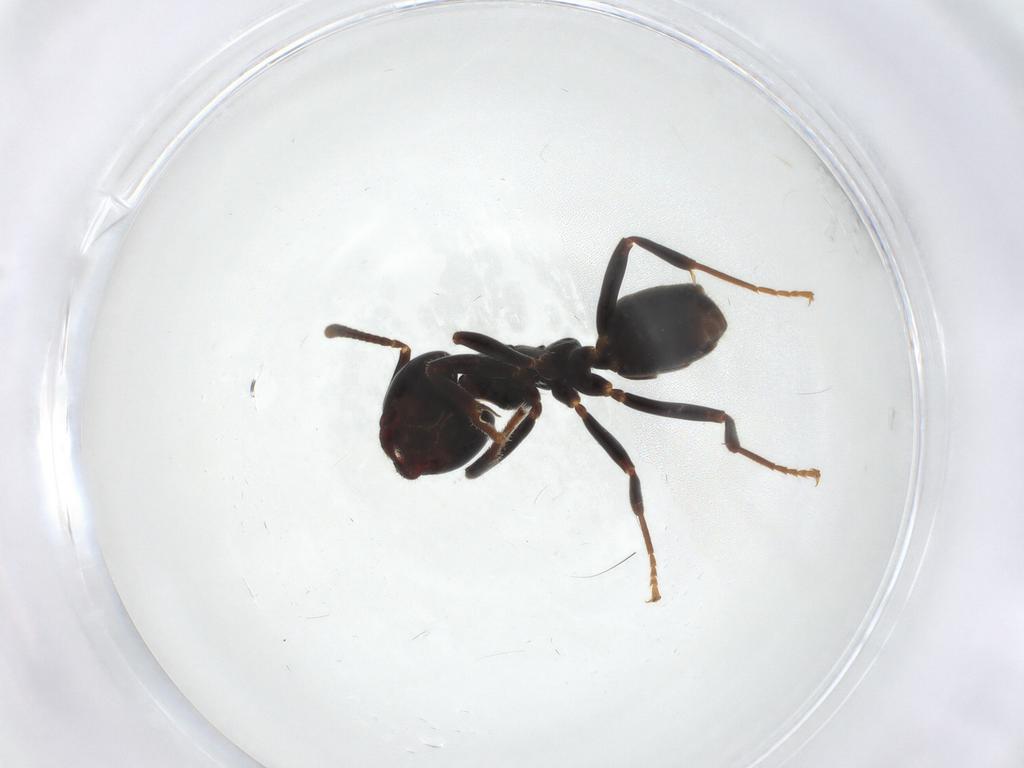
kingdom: Animalia
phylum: Arthropoda
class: Insecta
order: Hymenoptera
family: Formicidae
